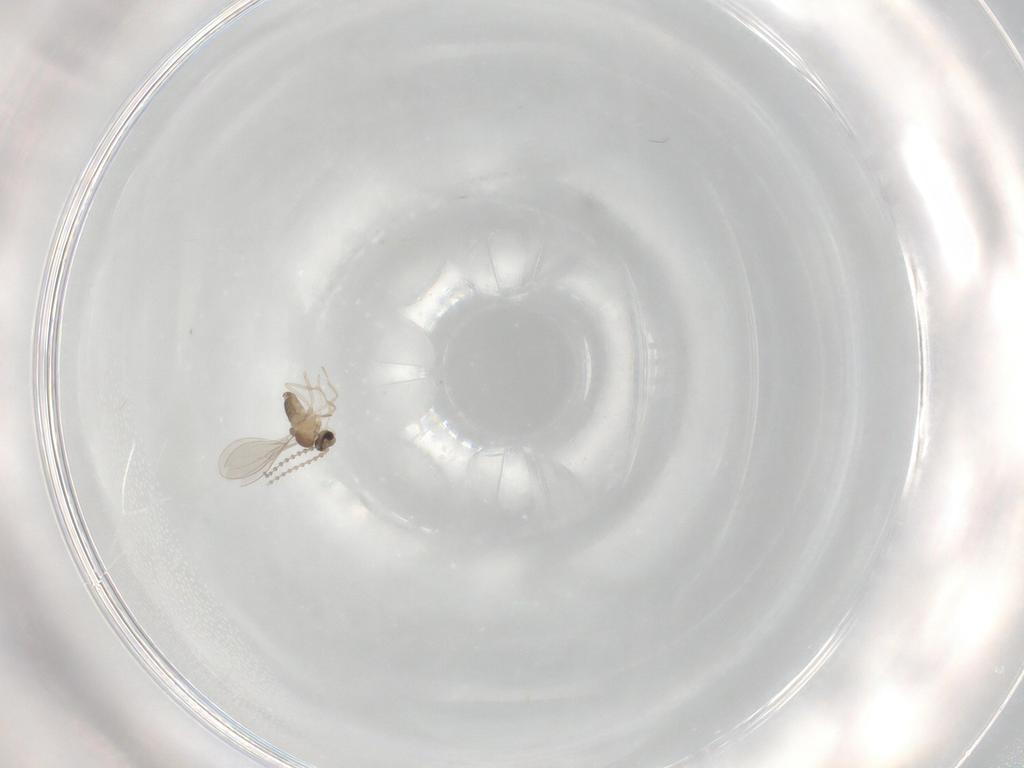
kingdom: Animalia
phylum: Arthropoda
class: Insecta
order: Diptera
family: Cecidomyiidae
